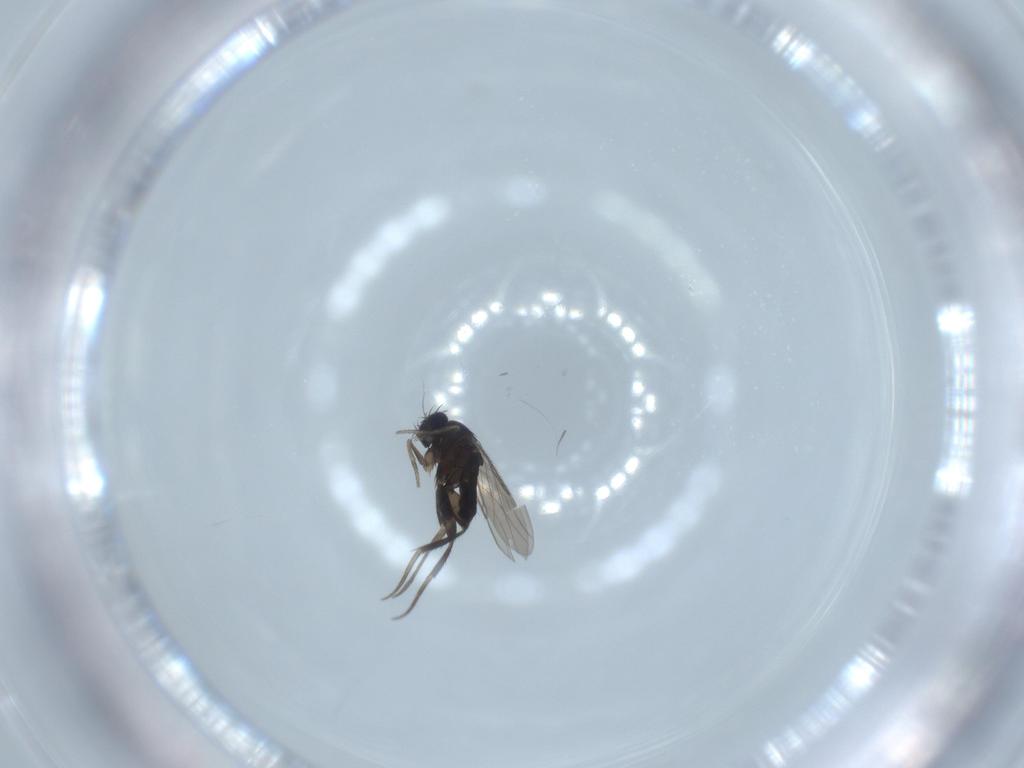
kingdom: Animalia
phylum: Arthropoda
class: Insecta
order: Diptera
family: Phoridae
